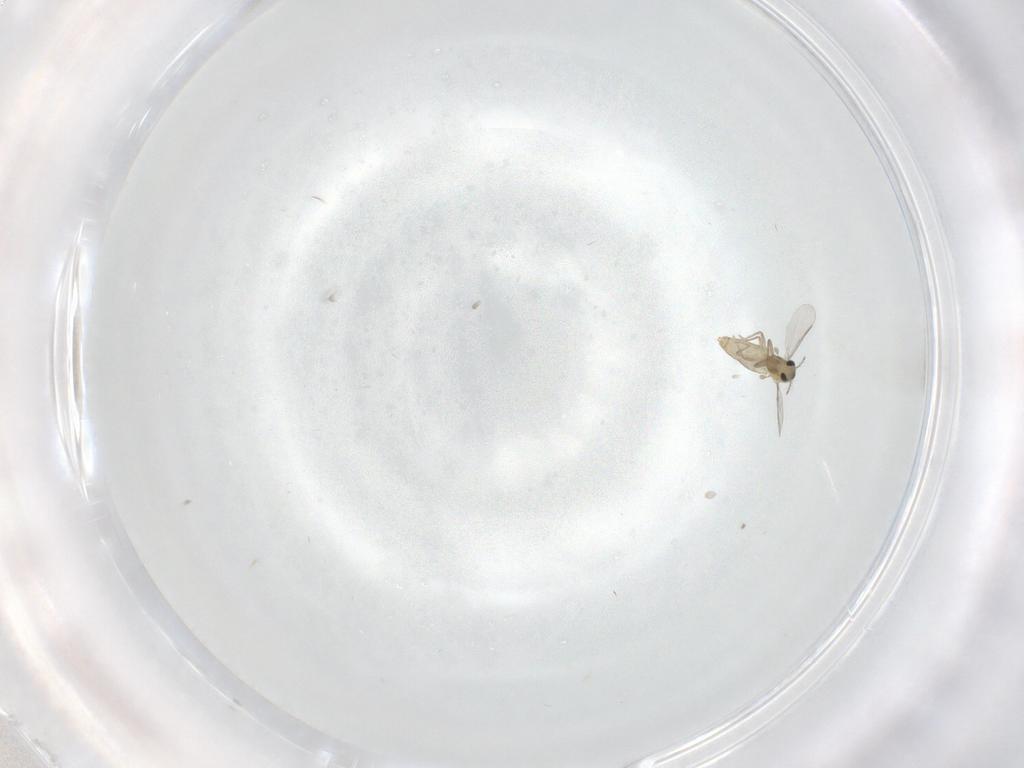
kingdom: Animalia
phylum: Arthropoda
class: Insecta
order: Diptera
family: Chironomidae
